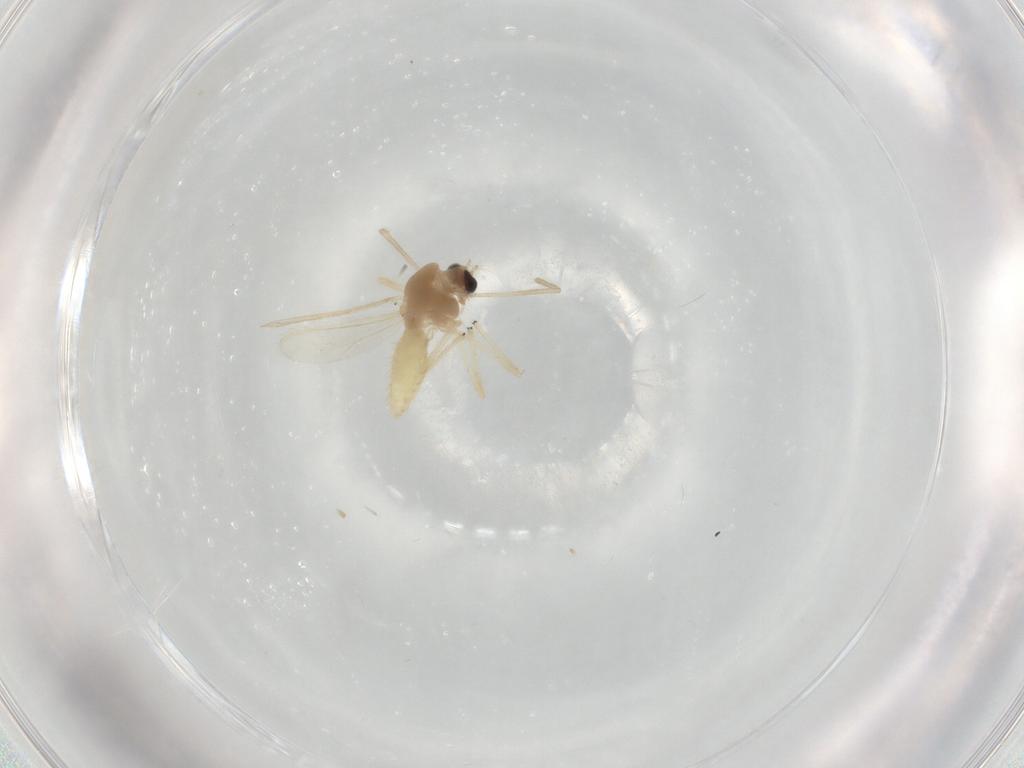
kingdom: Animalia
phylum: Arthropoda
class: Insecta
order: Diptera
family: Chironomidae
